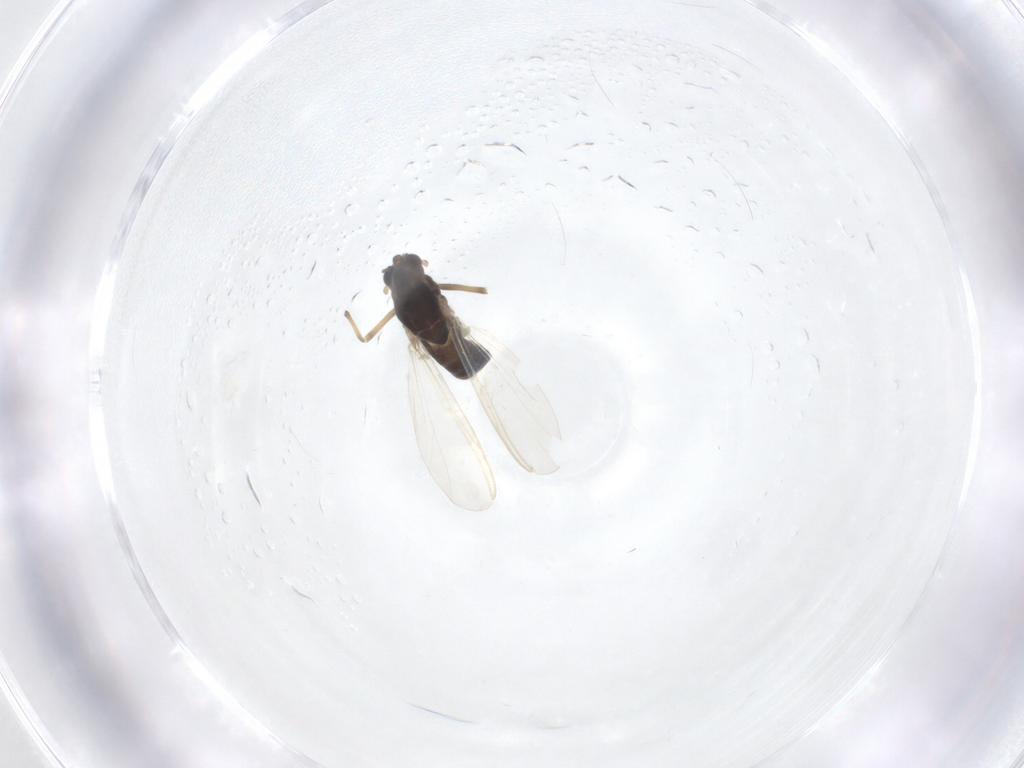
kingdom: Animalia
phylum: Arthropoda
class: Insecta
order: Diptera
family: Chironomidae
